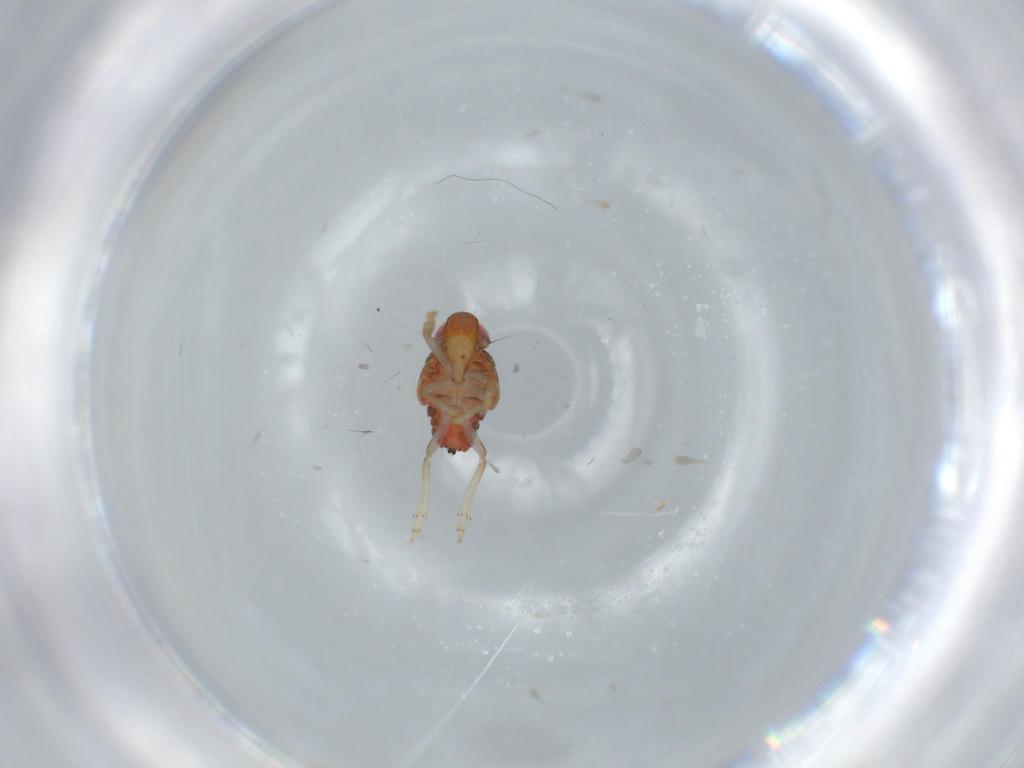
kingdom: Animalia
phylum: Arthropoda
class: Insecta
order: Hemiptera
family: Issidae
